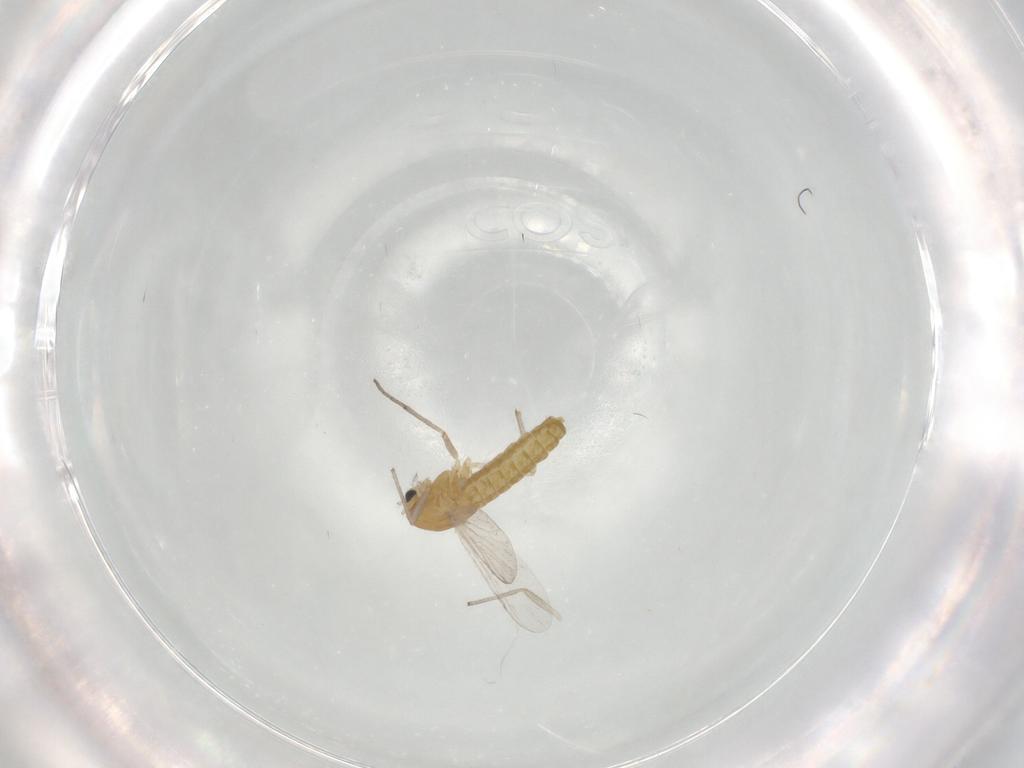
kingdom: Animalia
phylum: Arthropoda
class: Insecta
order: Diptera
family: Chironomidae
